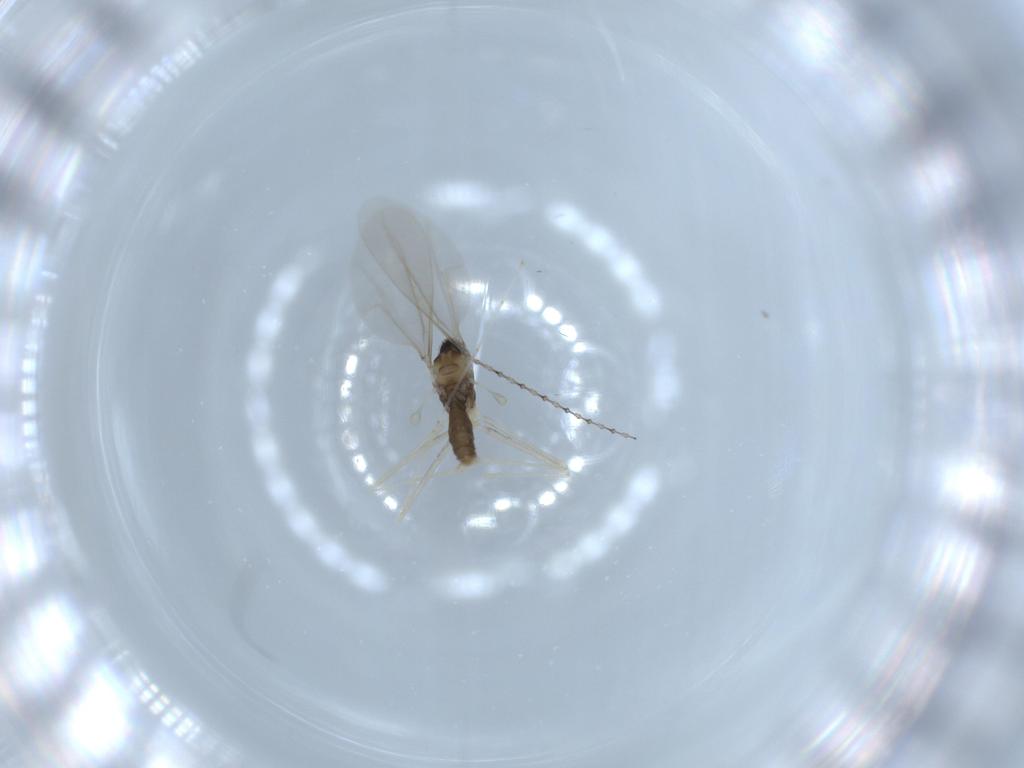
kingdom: Animalia
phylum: Arthropoda
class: Insecta
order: Diptera
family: Cecidomyiidae
